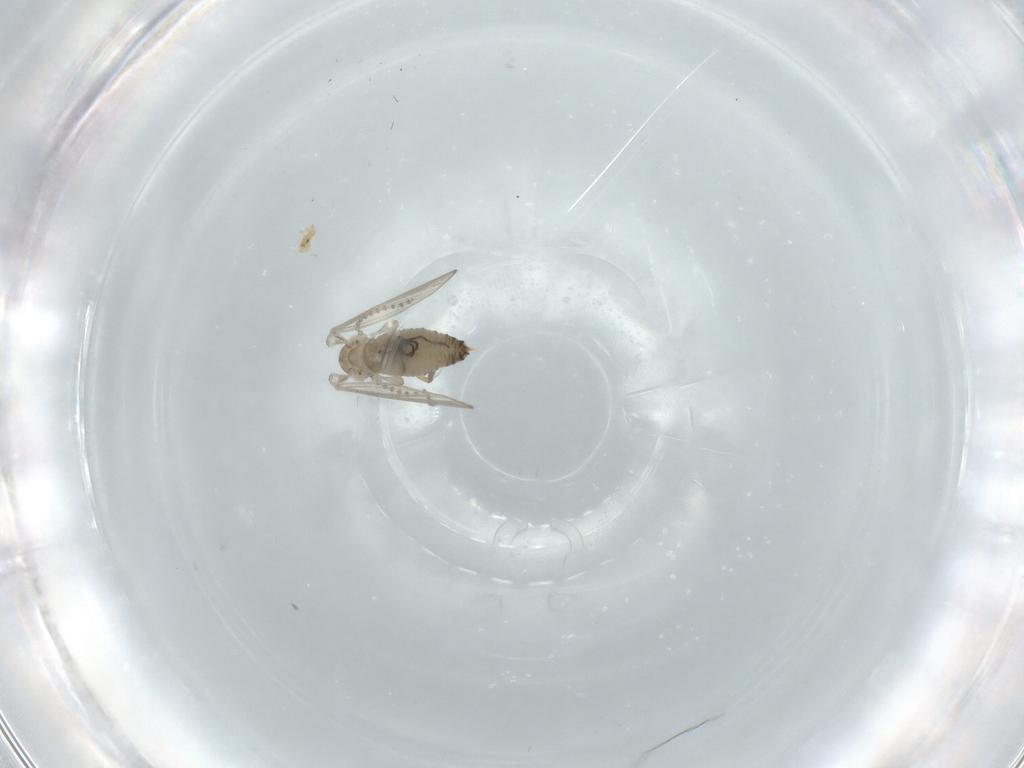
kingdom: Animalia
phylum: Arthropoda
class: Insecta
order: Diptera
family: Psychodidae
